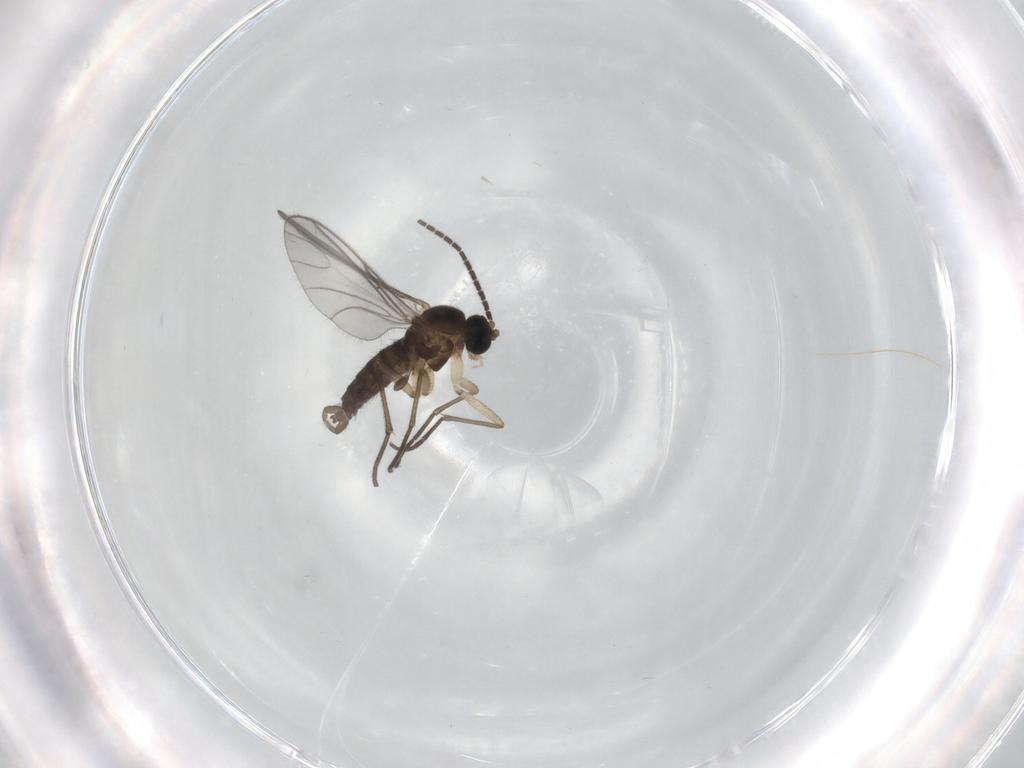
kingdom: Animalia
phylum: Arthropoda
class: Insecta
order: Diptera
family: Sciaridae
